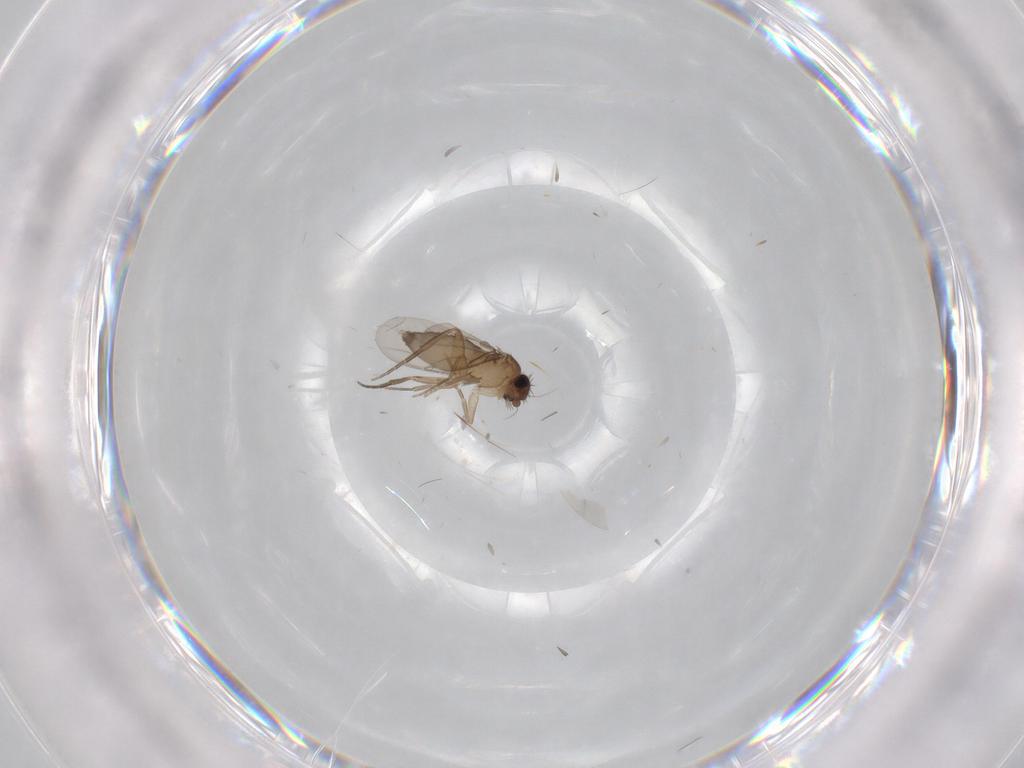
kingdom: Animalia
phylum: Arthropoda
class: Insecta
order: Diptera
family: Phoridae
